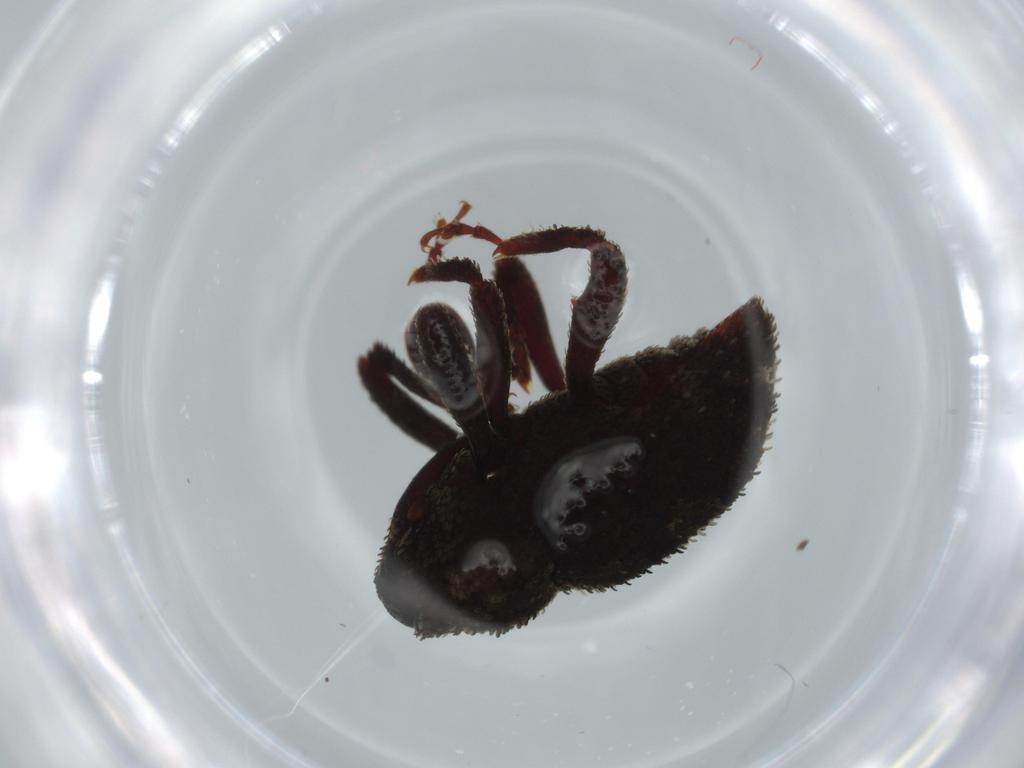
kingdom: Animalia
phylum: Arthropoda
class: Insecta
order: Coleoptera
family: Curculionidae
